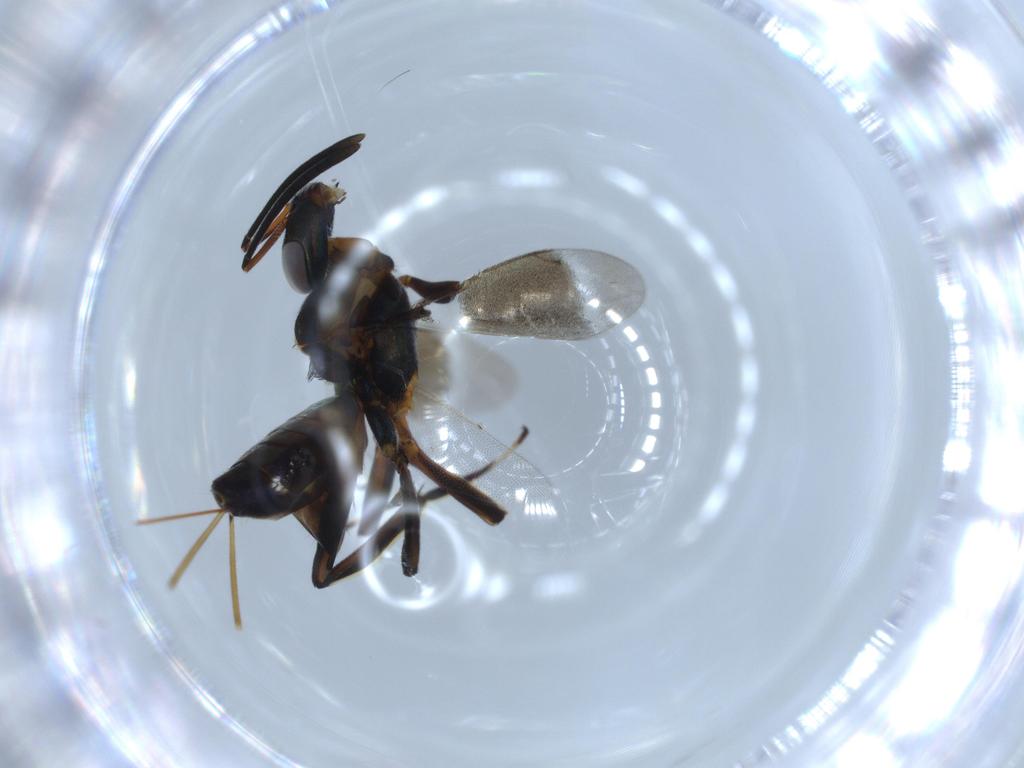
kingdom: Animalia
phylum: Arthropoda
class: Insecta
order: Hymenoptera
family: Eupelmidae
